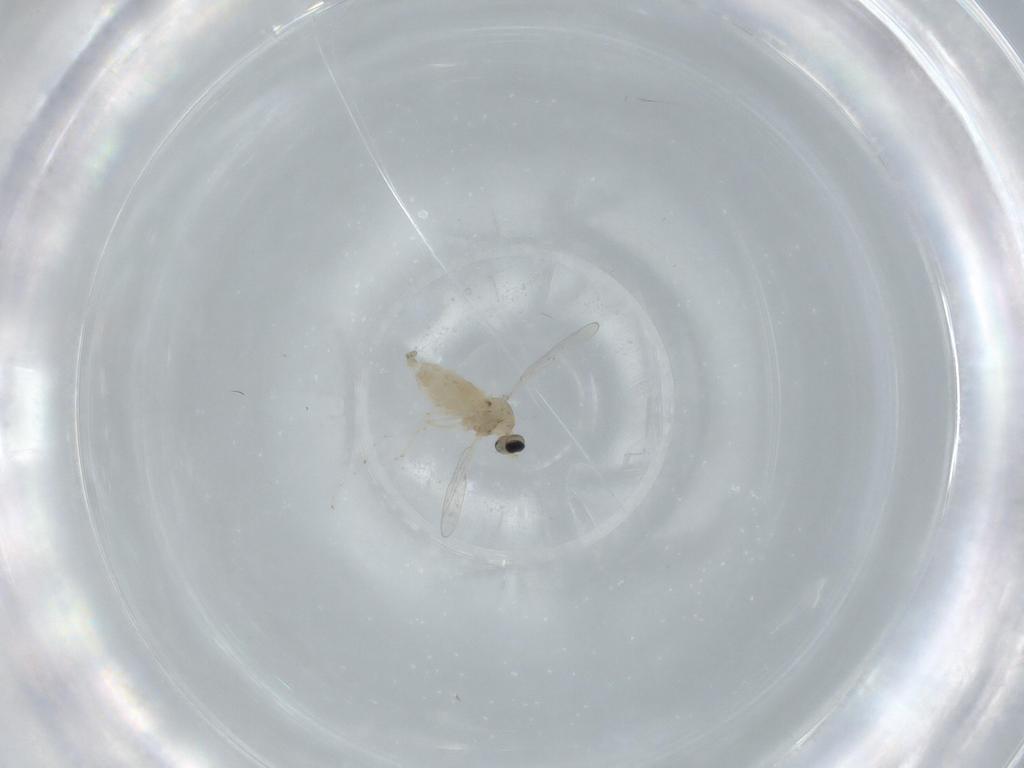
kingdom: Animalia
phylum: Arthropoda
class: Insecta
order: Diptera
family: Cecidomyiidae
